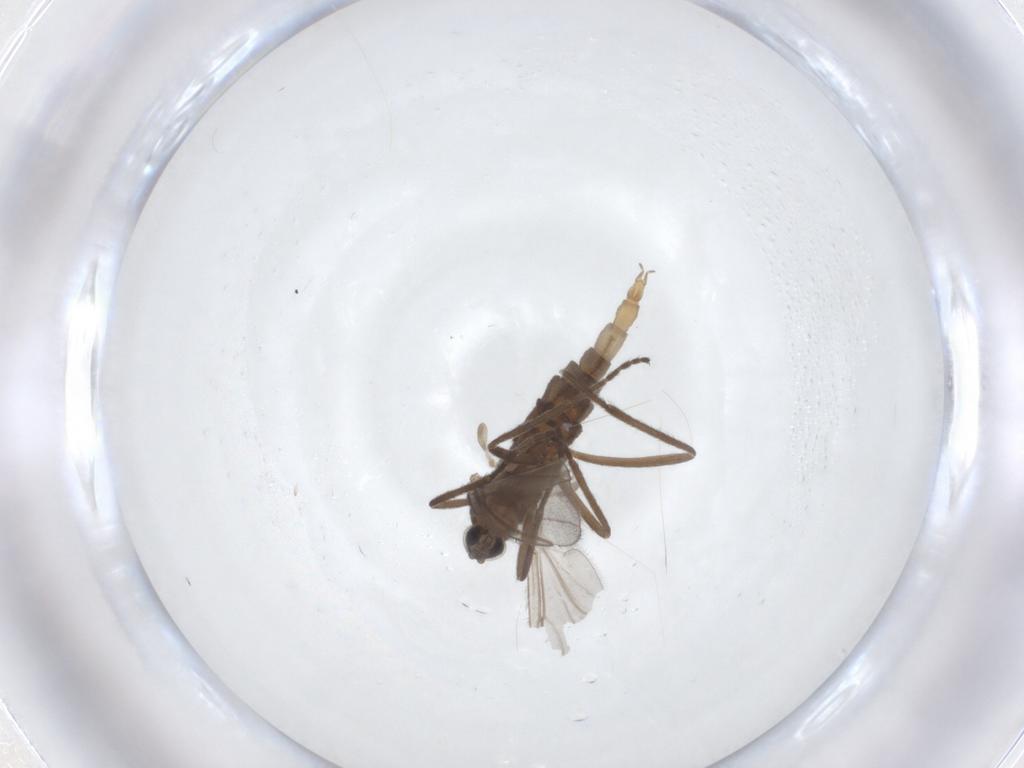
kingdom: Animalia
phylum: Arthropoda
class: Insecta
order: Diptera
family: Cecidomyiidae
